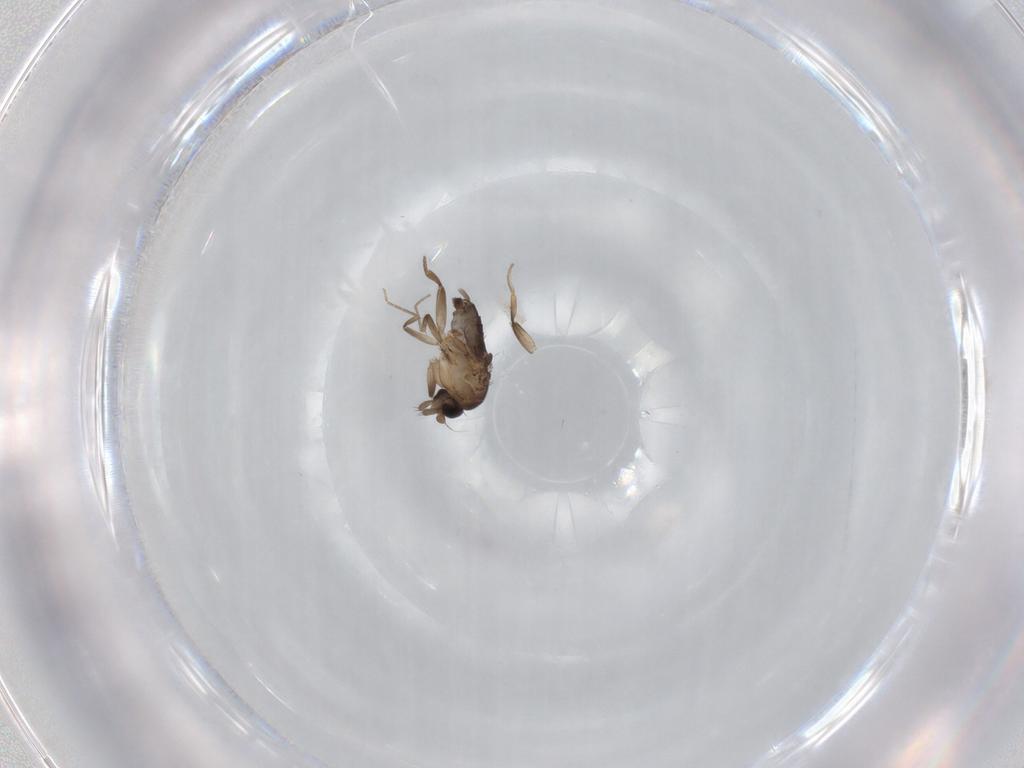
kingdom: Animalia
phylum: Arthropoda
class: Insecta
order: Diptera
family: Phoridae
